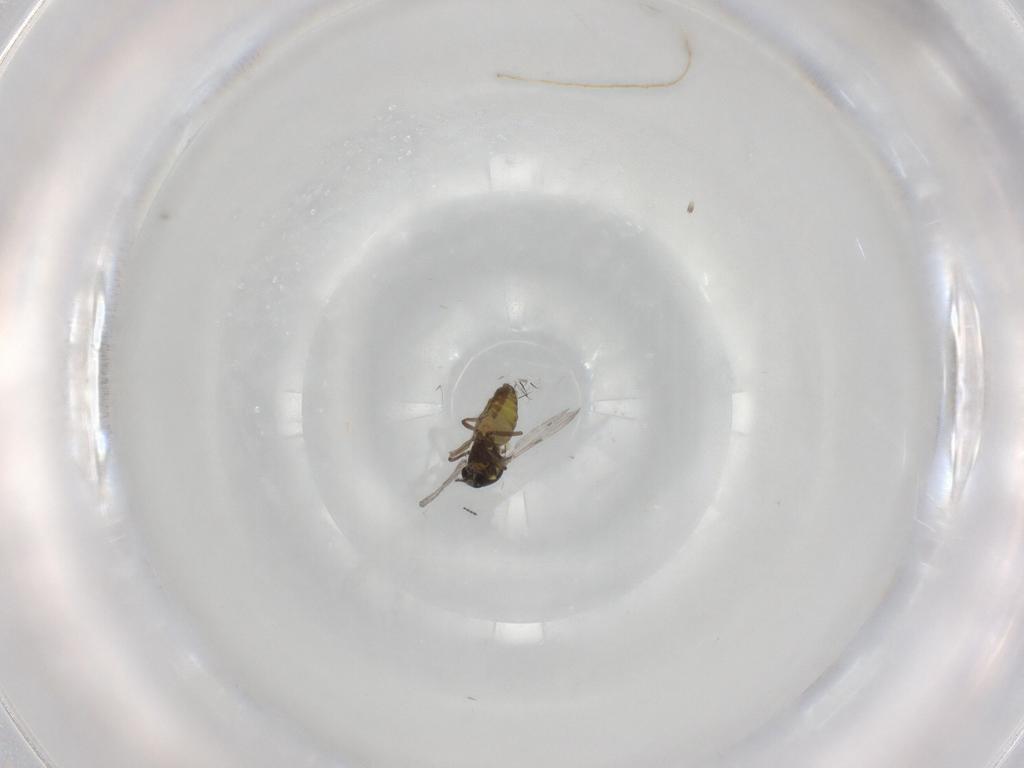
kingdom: Animalia
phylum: Arthropoda
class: Insecta
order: Diptera
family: Ceratopogonidae
